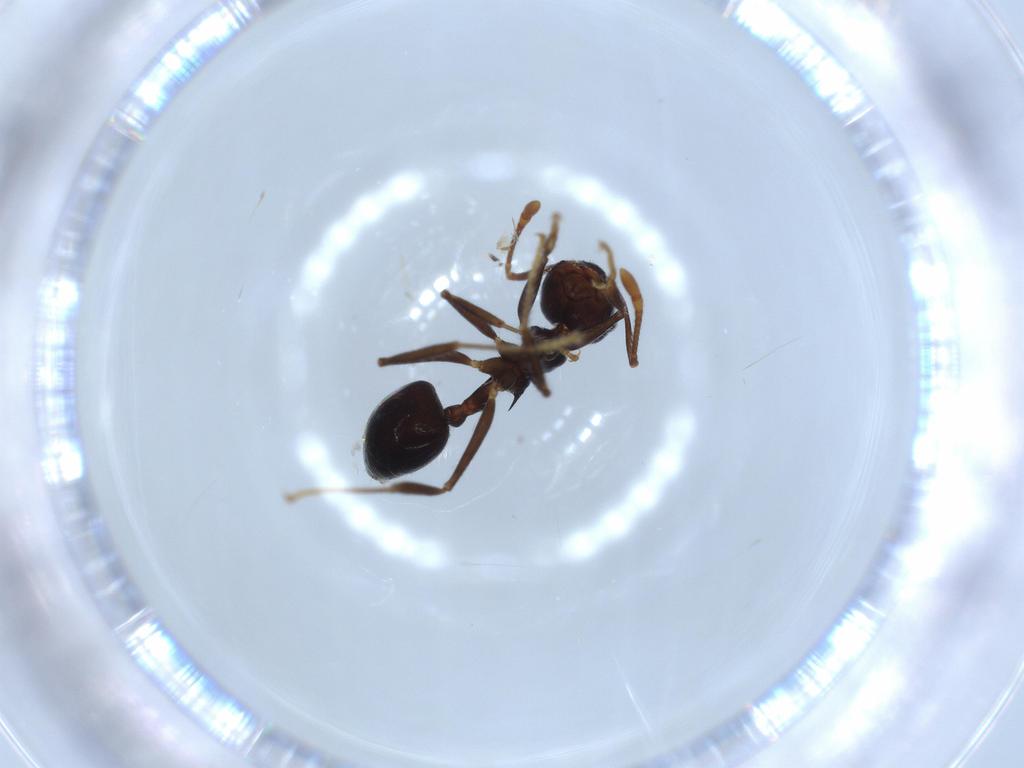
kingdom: Animalia
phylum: Arthropoda
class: Insecta
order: Hymenoptera
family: Formicidae
